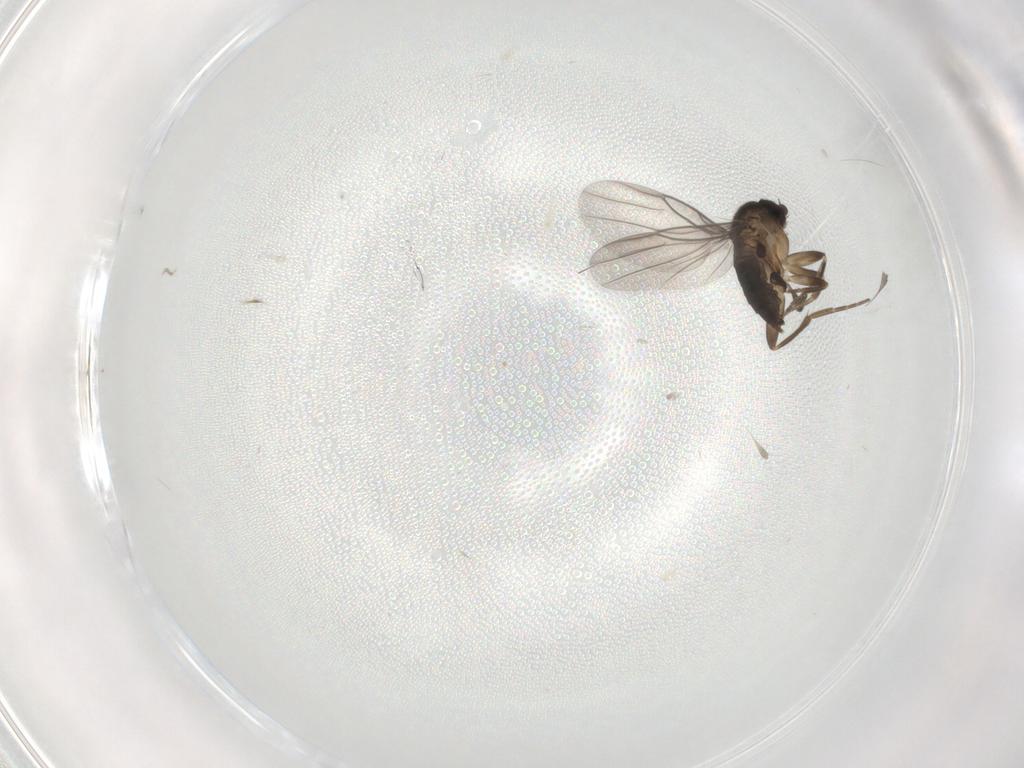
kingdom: Animalia
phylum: Arthropoda
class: Insecta
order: Diptera
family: Chironomidae
